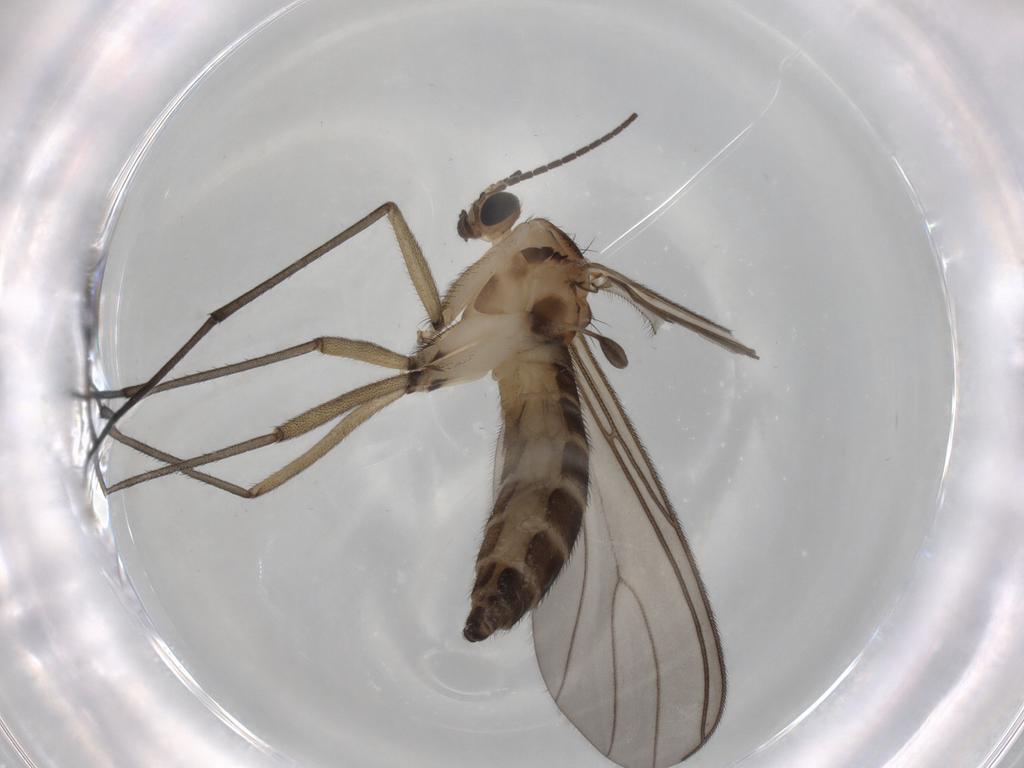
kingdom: Animalia
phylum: Arthropoda
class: Insecta
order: Diptera
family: Sciaridae
